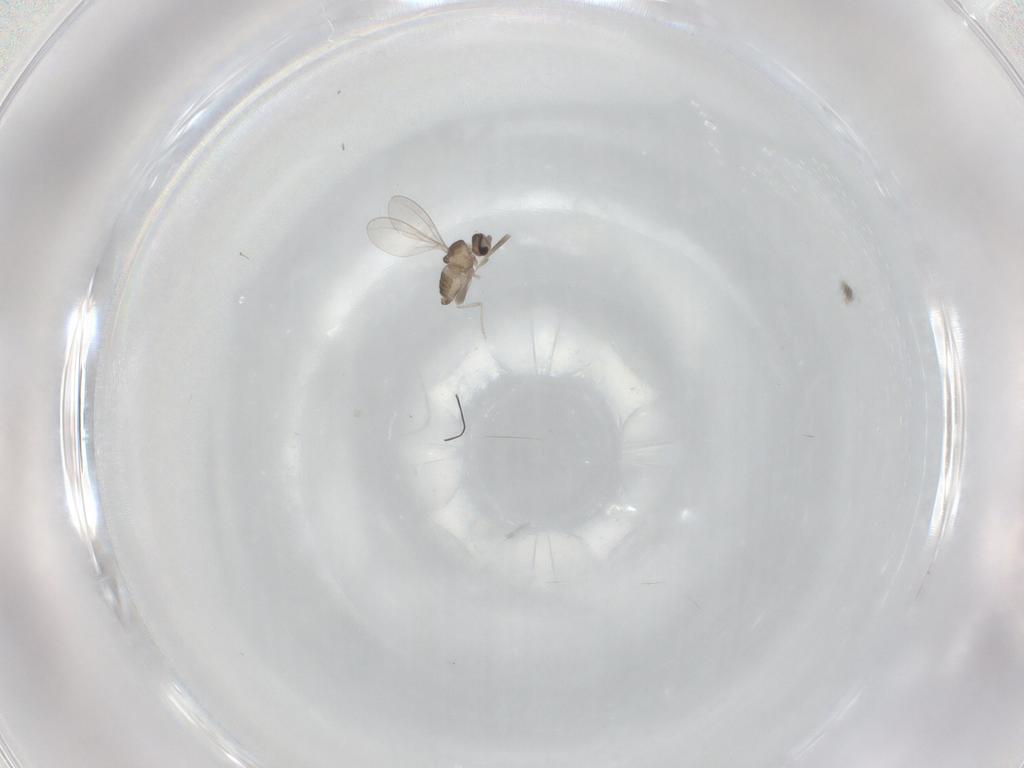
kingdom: Animalia
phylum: Arthropoda
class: Insecta
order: Diptera
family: Cecidomyiidae
